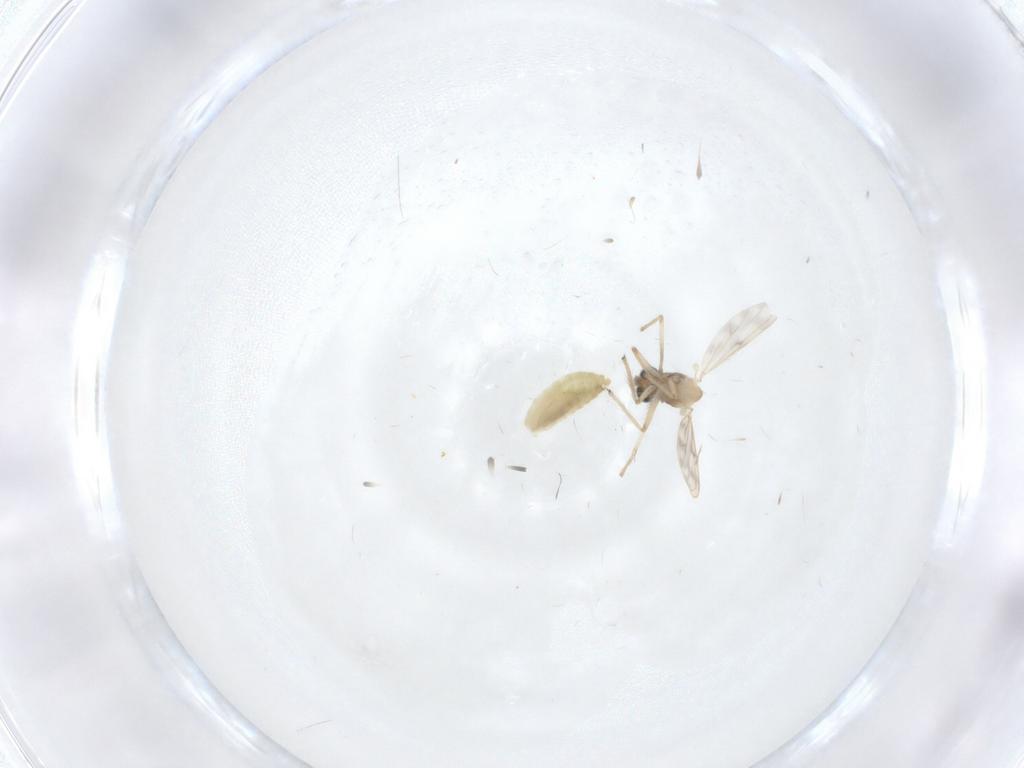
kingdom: Animalia
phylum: Arthropoda
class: Insecta
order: Diptera
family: Chironomidae
